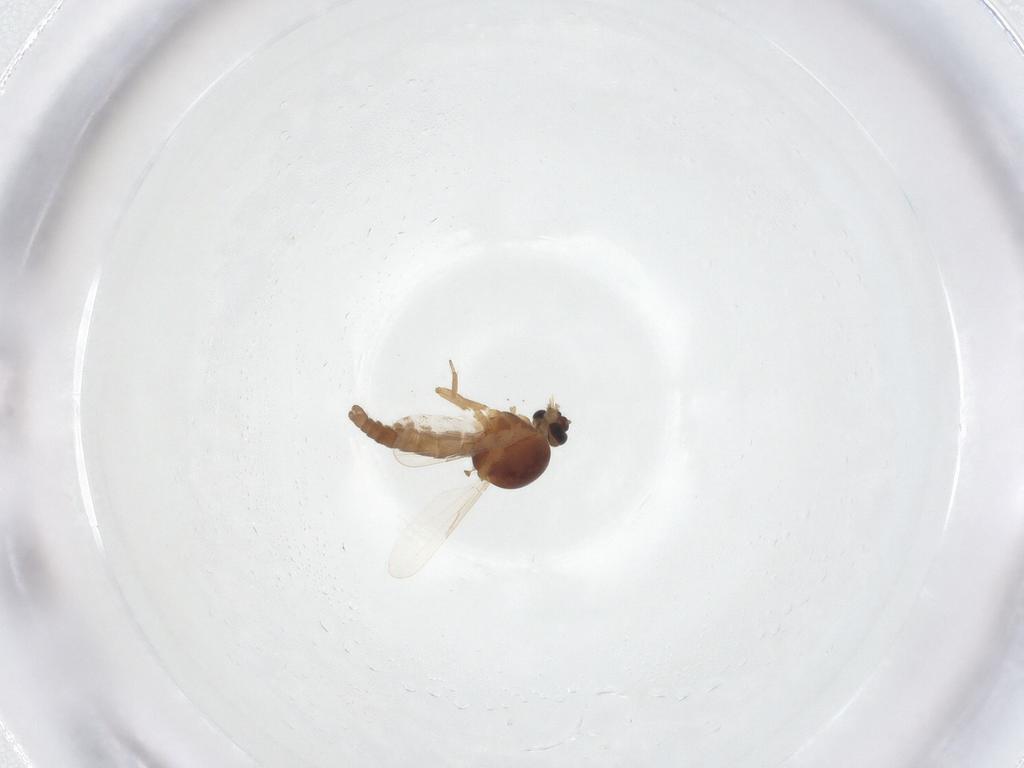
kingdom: Animalia
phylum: Arthropoda
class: Insecta
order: Diptera
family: Ceratopogonidae
